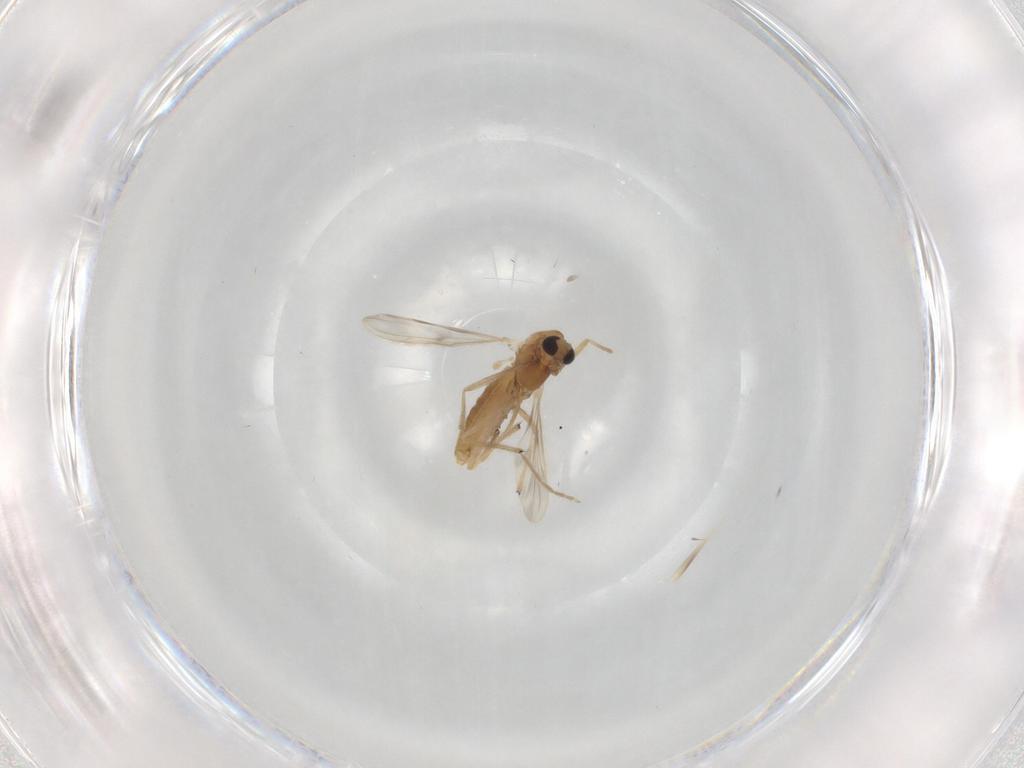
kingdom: Animalia
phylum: Arthropoda
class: Insecta
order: Diptera
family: Chironomidae
